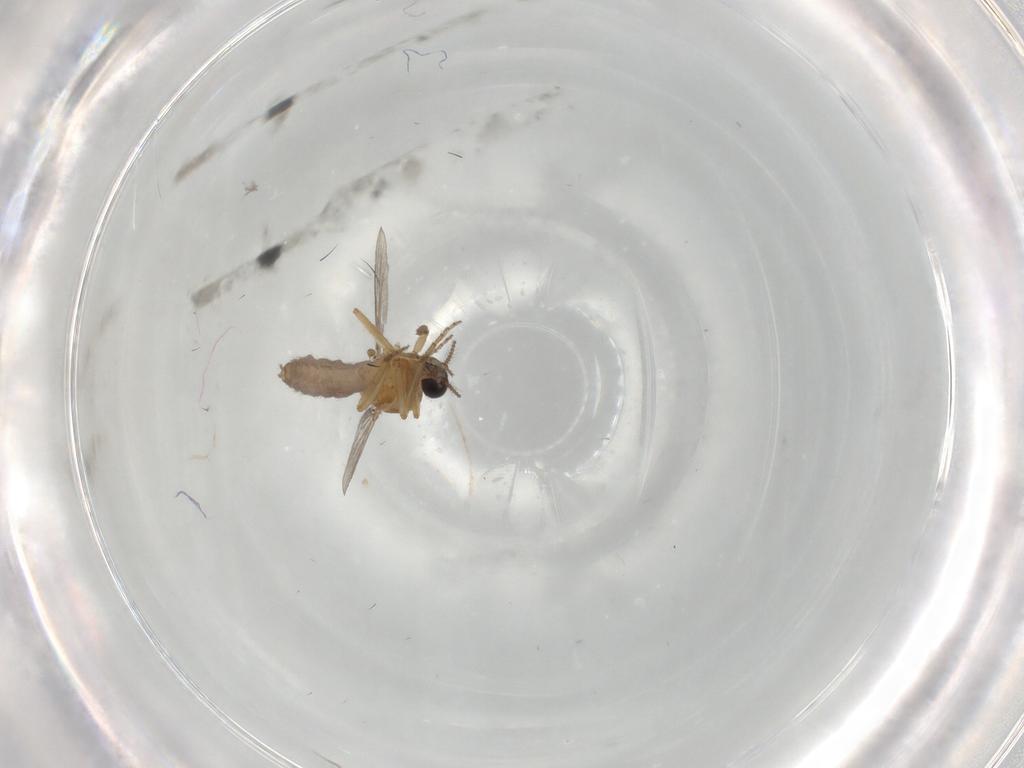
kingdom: Animalia
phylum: Arthropoda
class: Insecta
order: Diptera
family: Ceratopogonidae
